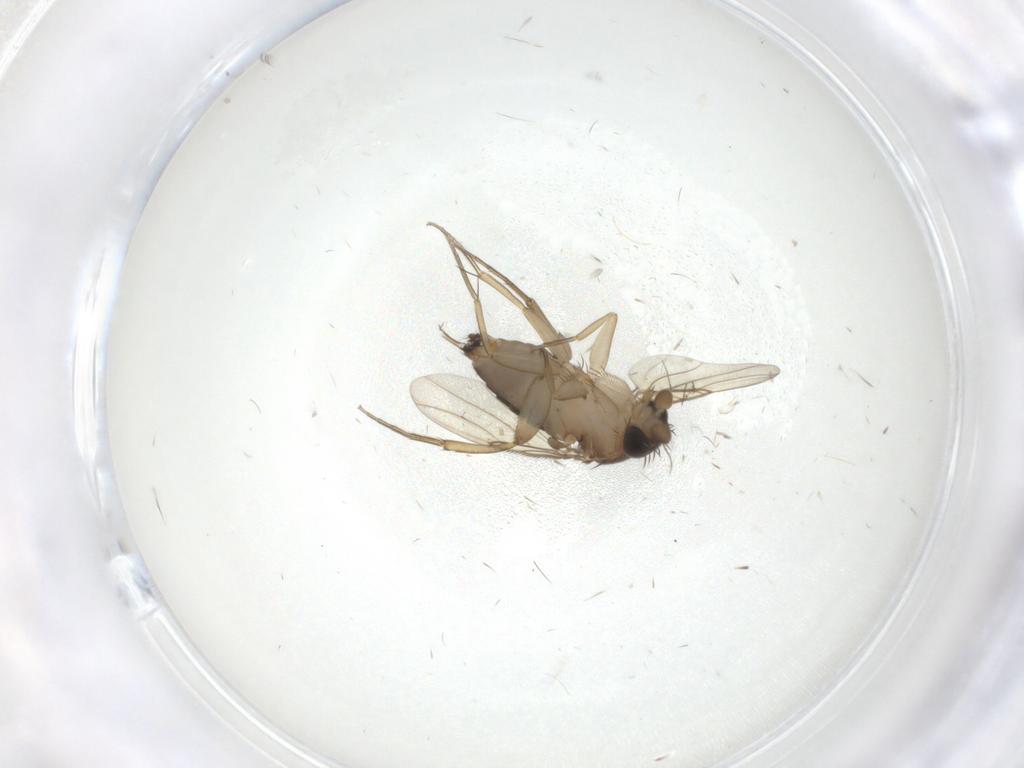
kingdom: Animalia
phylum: Arthropoda
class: Insecta
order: Diptera
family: Phoridae
